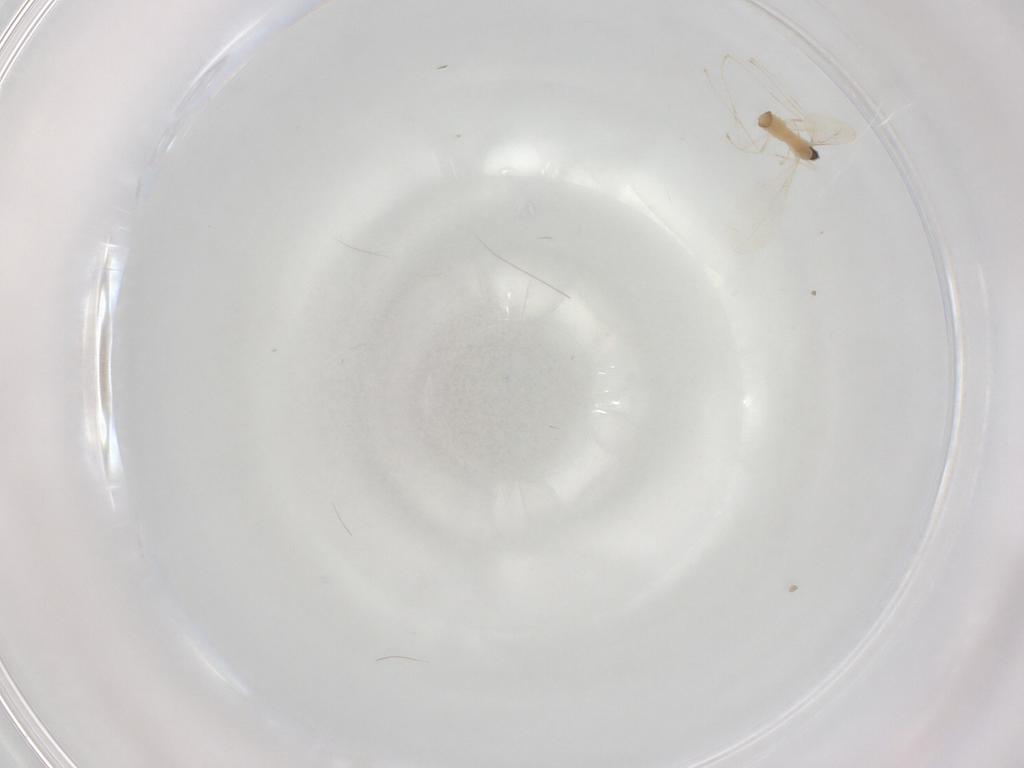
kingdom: Animalia
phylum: Arthropoda
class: Insecta
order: Diptera
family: Cecidomyiidae
